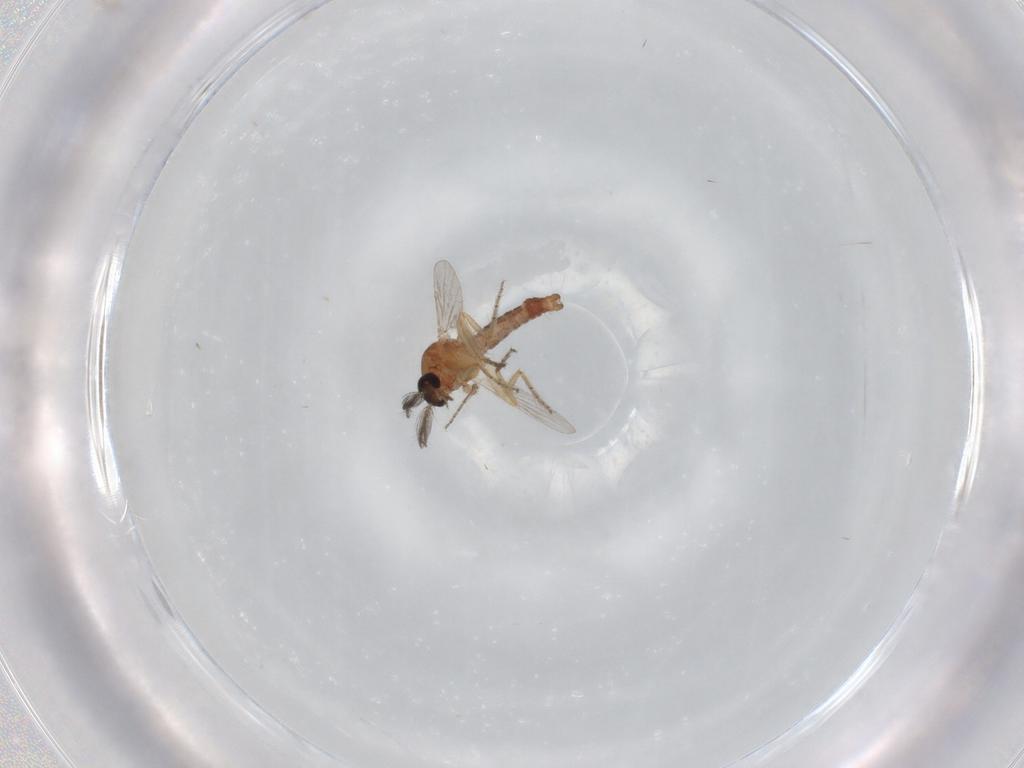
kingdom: Animalia
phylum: Arthropoda
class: Insecta
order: Diptera
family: Ceratopogonidae
